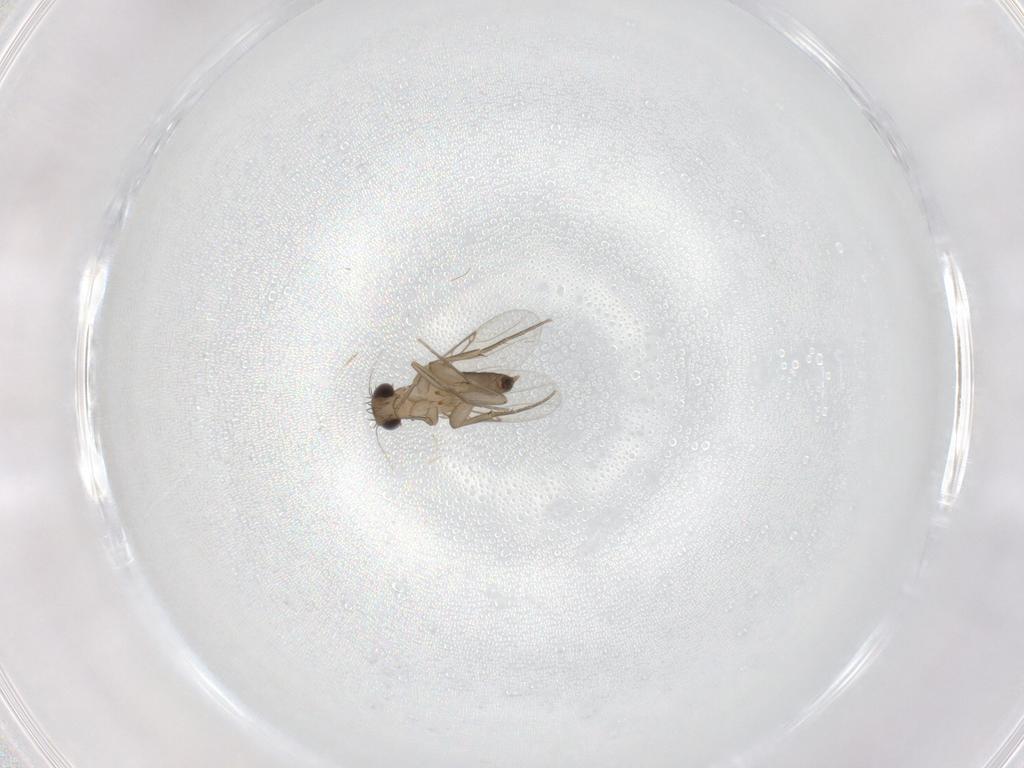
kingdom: Animalia
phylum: Arthropoda
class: Insecta
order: Diptera
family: Phoridae
